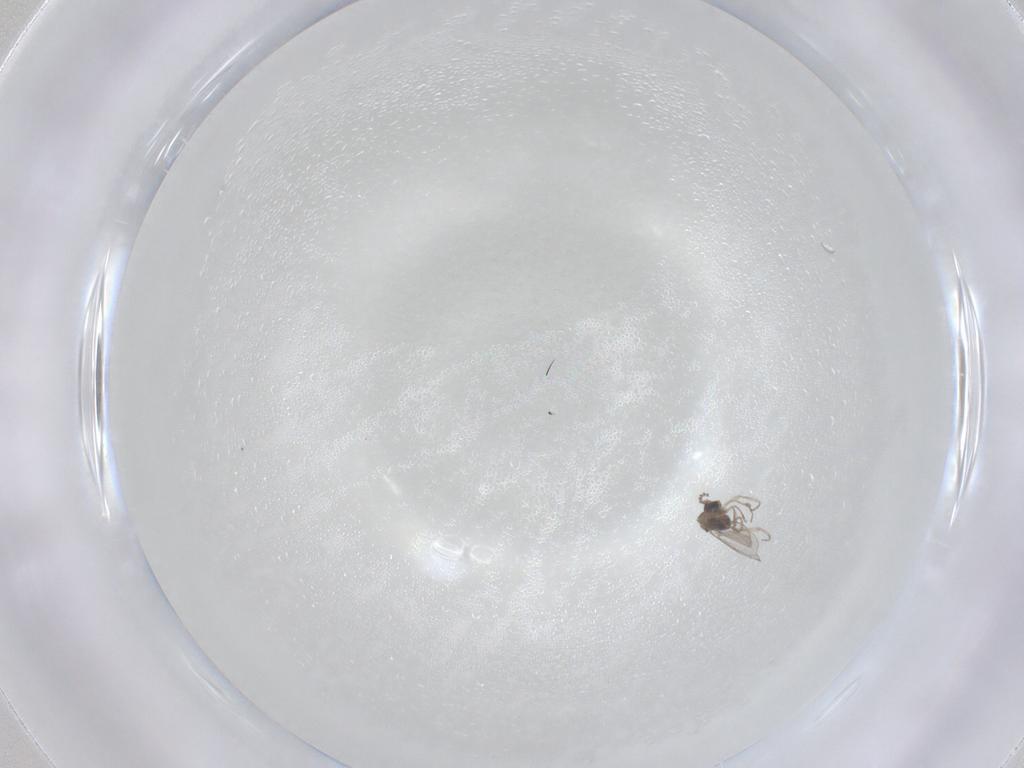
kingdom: Animalia
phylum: Arthropoda
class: Insecta
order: Diptera
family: Cecidomyiidae
